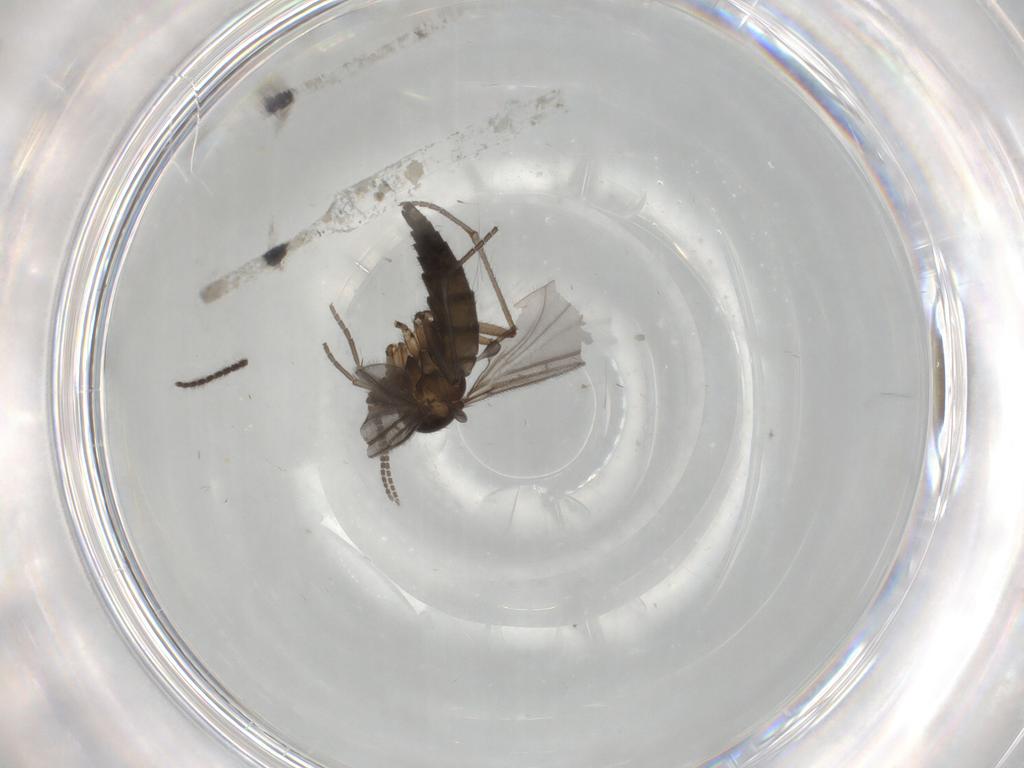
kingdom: Animalia
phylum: Arthropoda
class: Insecta
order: Diptera
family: Sciaridae
